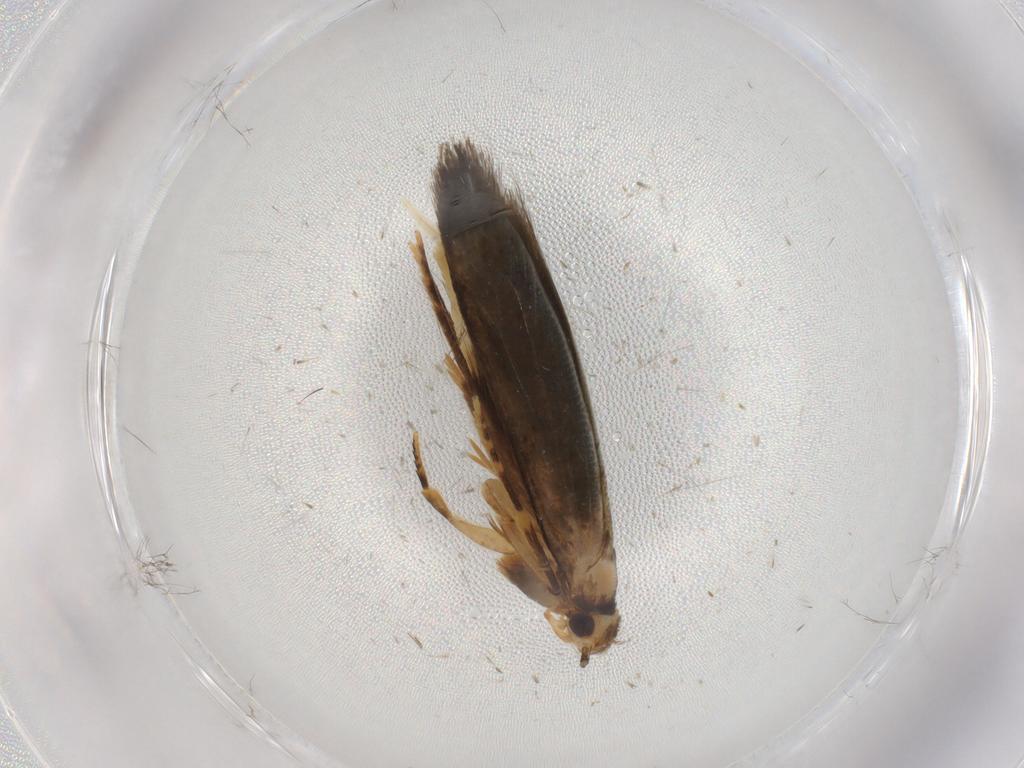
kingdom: Animalia
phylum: Arthropoda
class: Insecta
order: Lepidoptera
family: Tineidae
